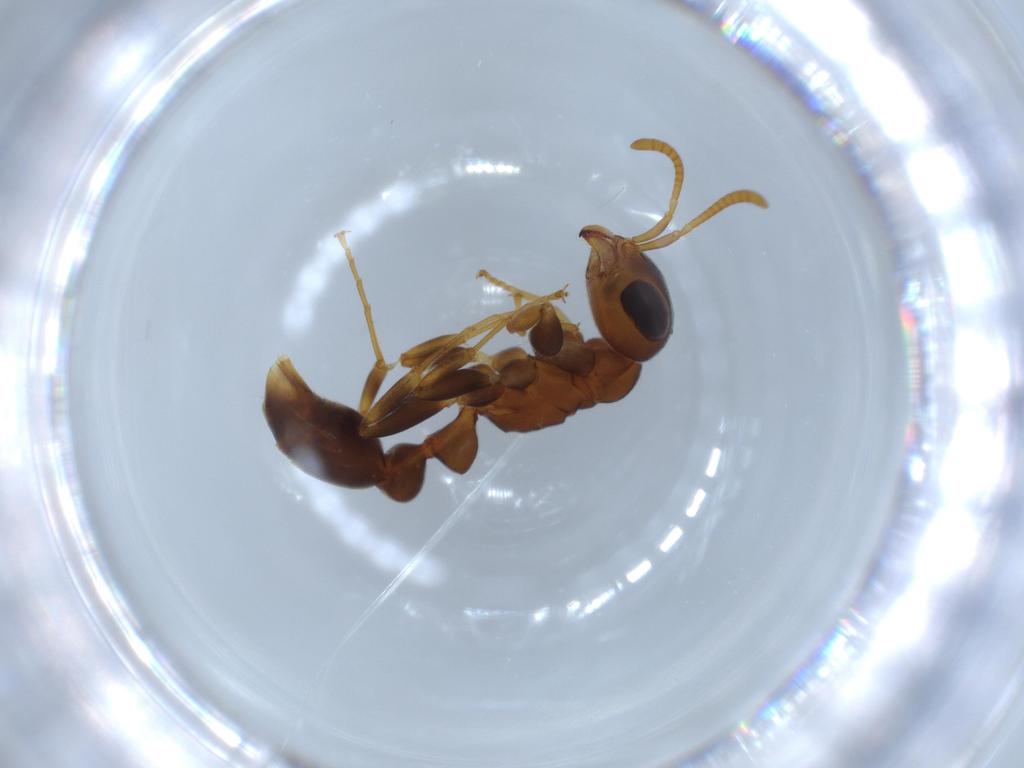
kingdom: Animalia
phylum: Arthropoda
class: Insecta
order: Hymenoptera
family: Formicidae
